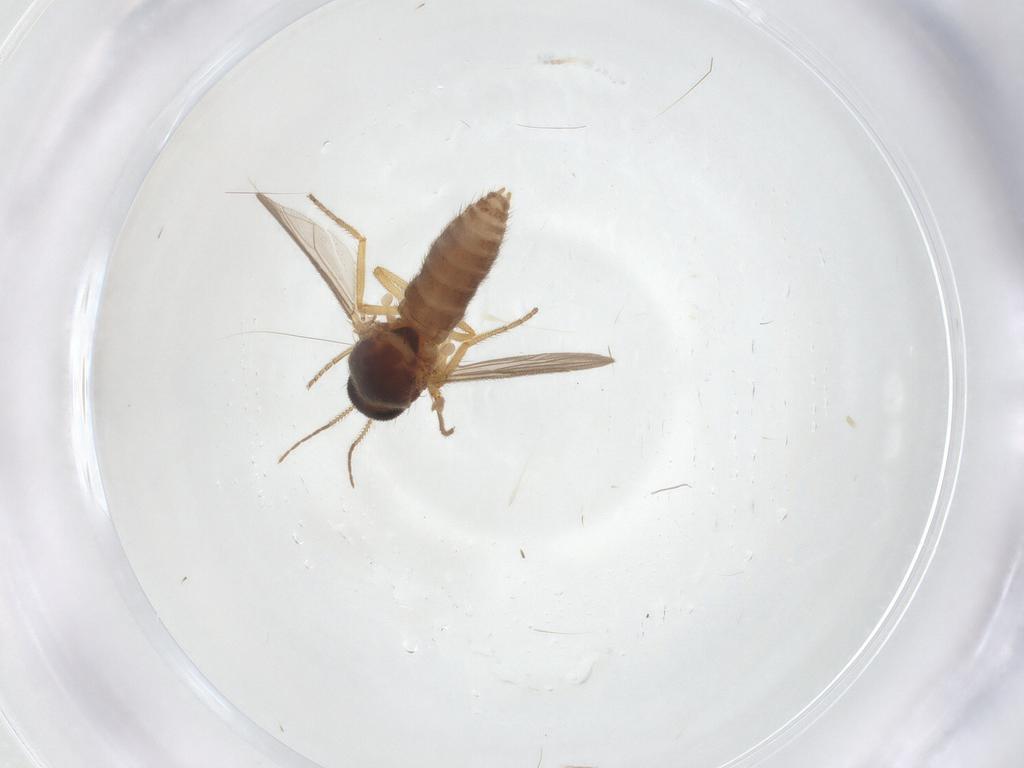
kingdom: Animalia
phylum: Arthropoda
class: Insecta
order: Diptera
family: Ceratopogonidae
